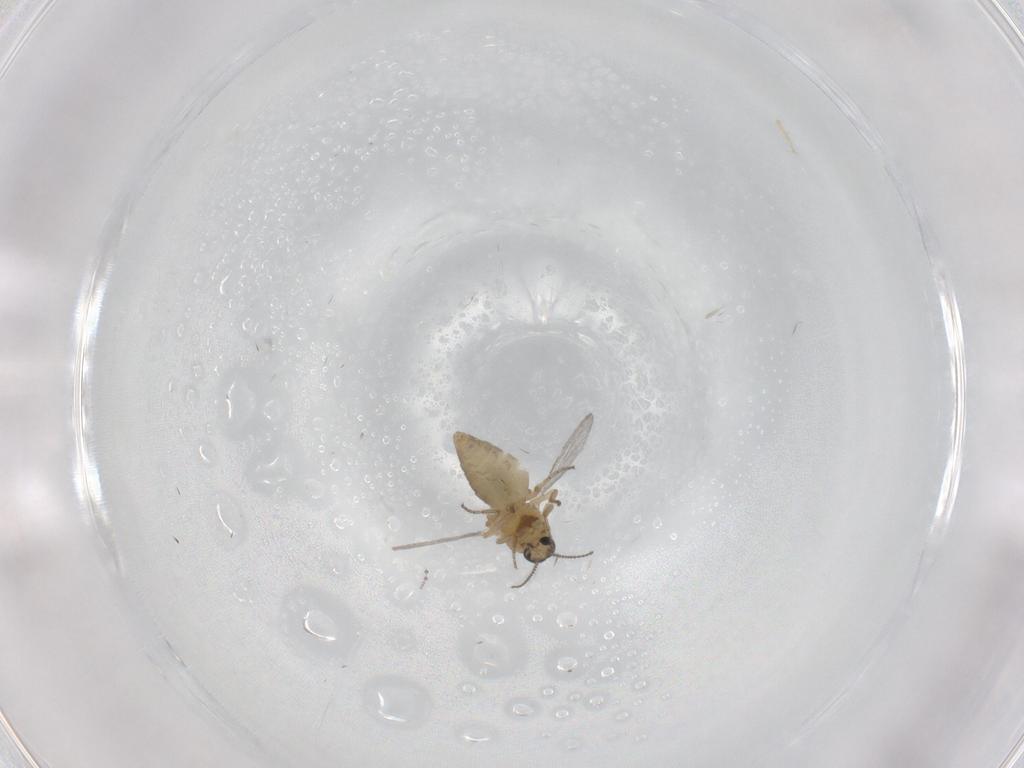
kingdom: Animalia
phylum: Arthropoda
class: Insecta
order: Diptera
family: Ceratopogonidae
